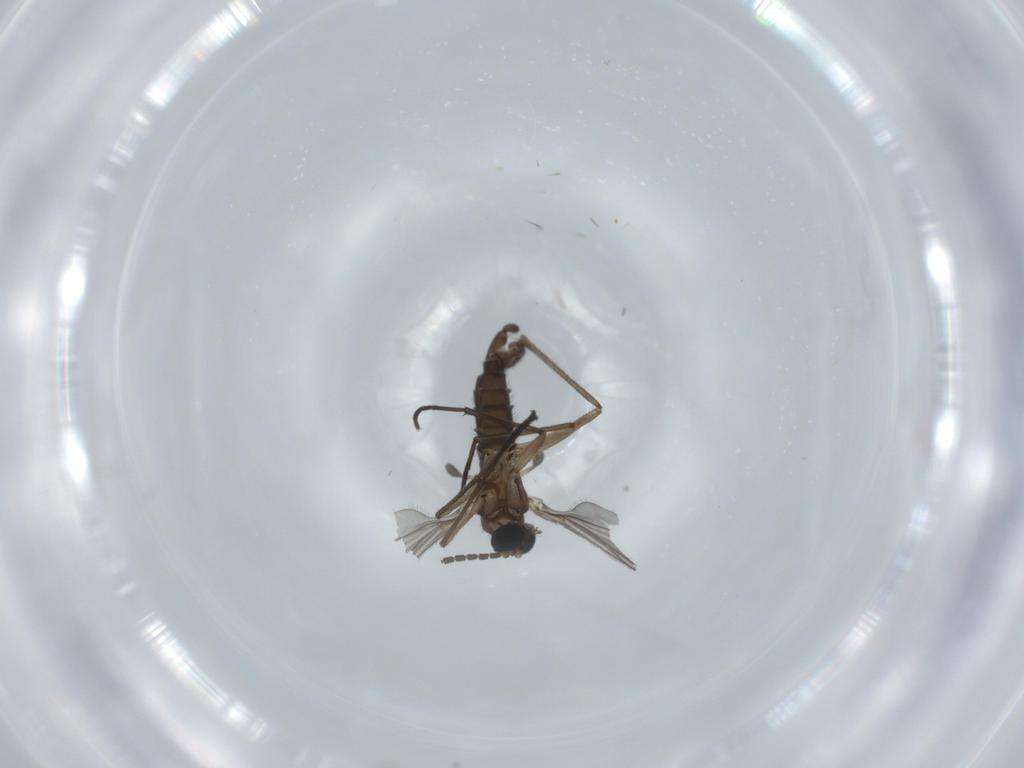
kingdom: Animalia
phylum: Arthropoda
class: Insecta
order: Diptera
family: Sciaridae
